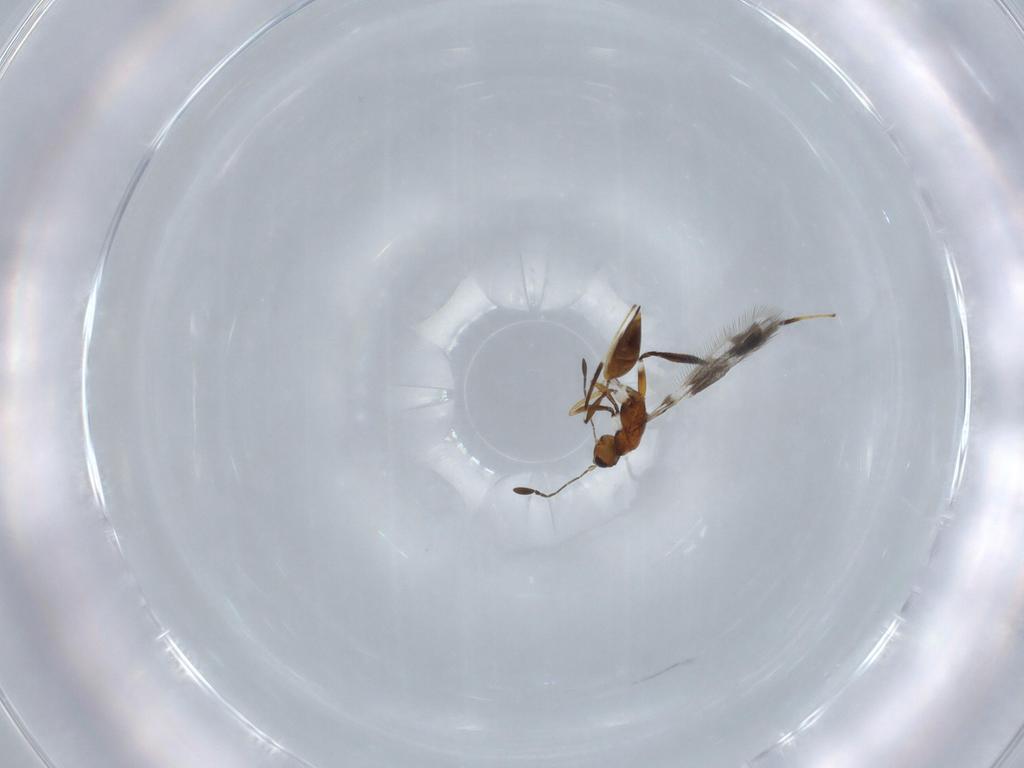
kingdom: Animalia
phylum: Arthropoda
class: Insecta
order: Hymenoptera
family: Mymaridae
